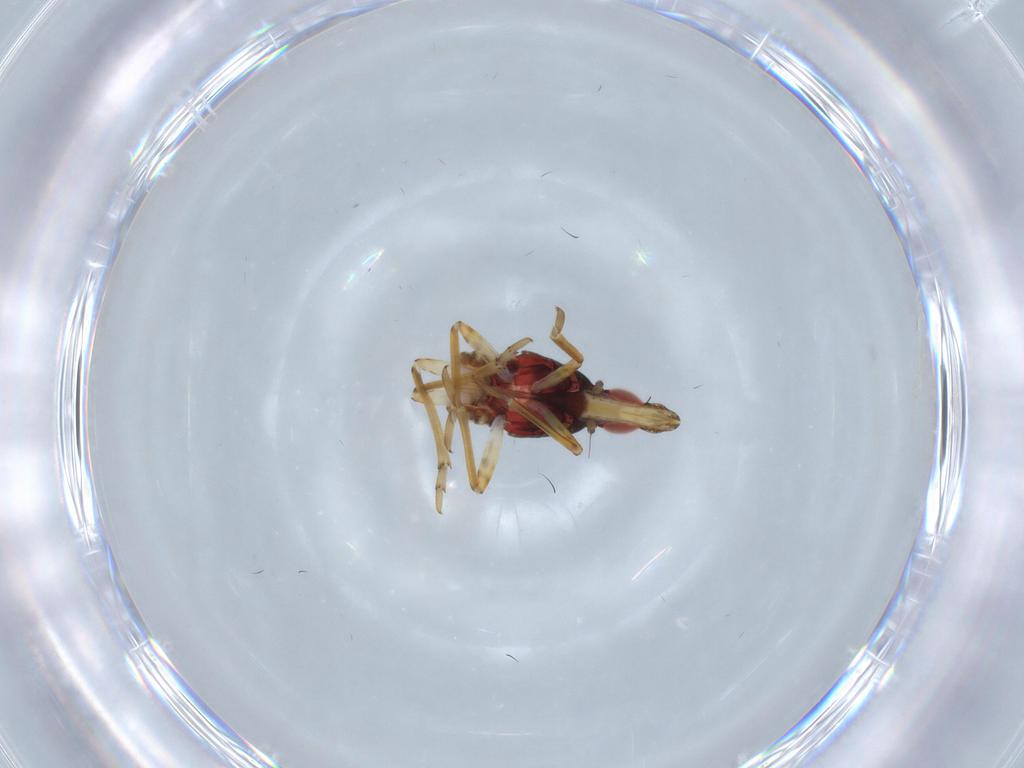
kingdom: Animalia
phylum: Arthropoda
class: Insecta
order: Hemiptera
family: Fulgoroidea_incertae_sedis
